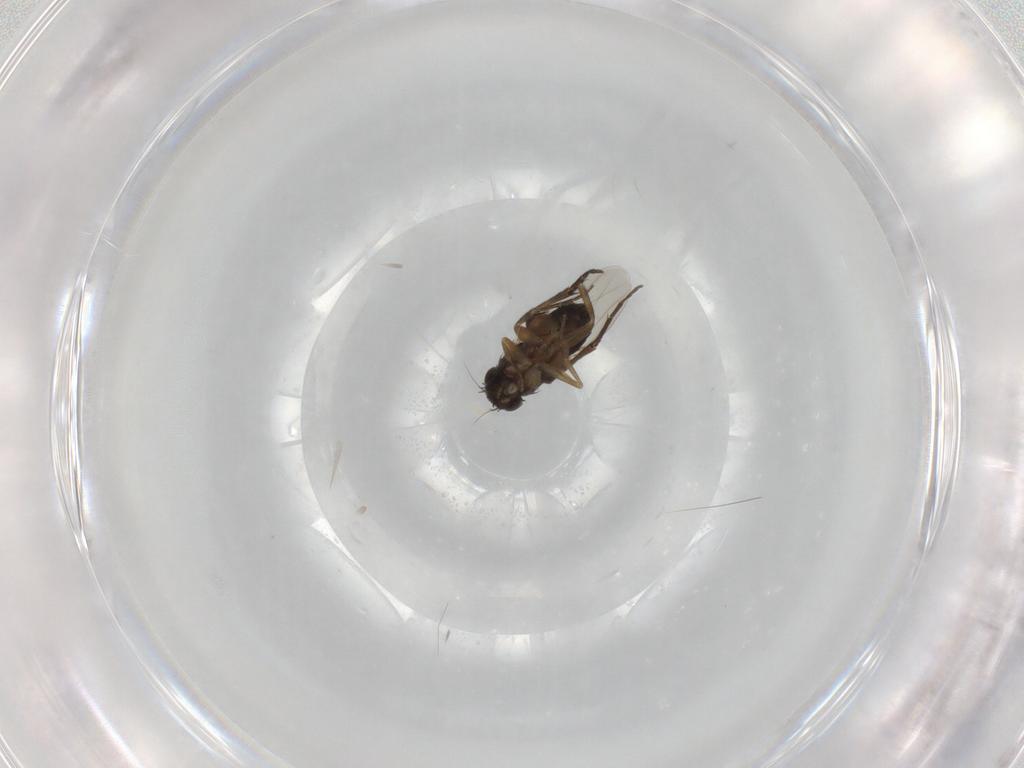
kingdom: Animalia
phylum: Arthropoda
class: Insecta
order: Diptera
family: Phoridae
